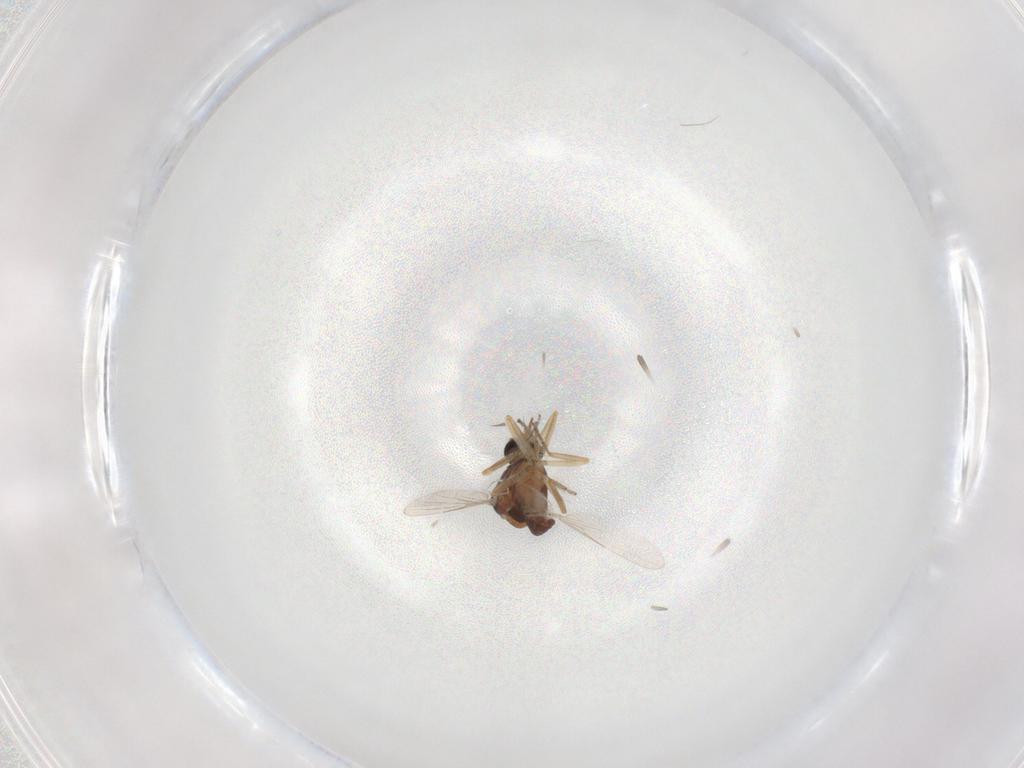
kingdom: Animalia
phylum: Arthropoda
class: Insecta
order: Diptera
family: Ceratopogonidae
